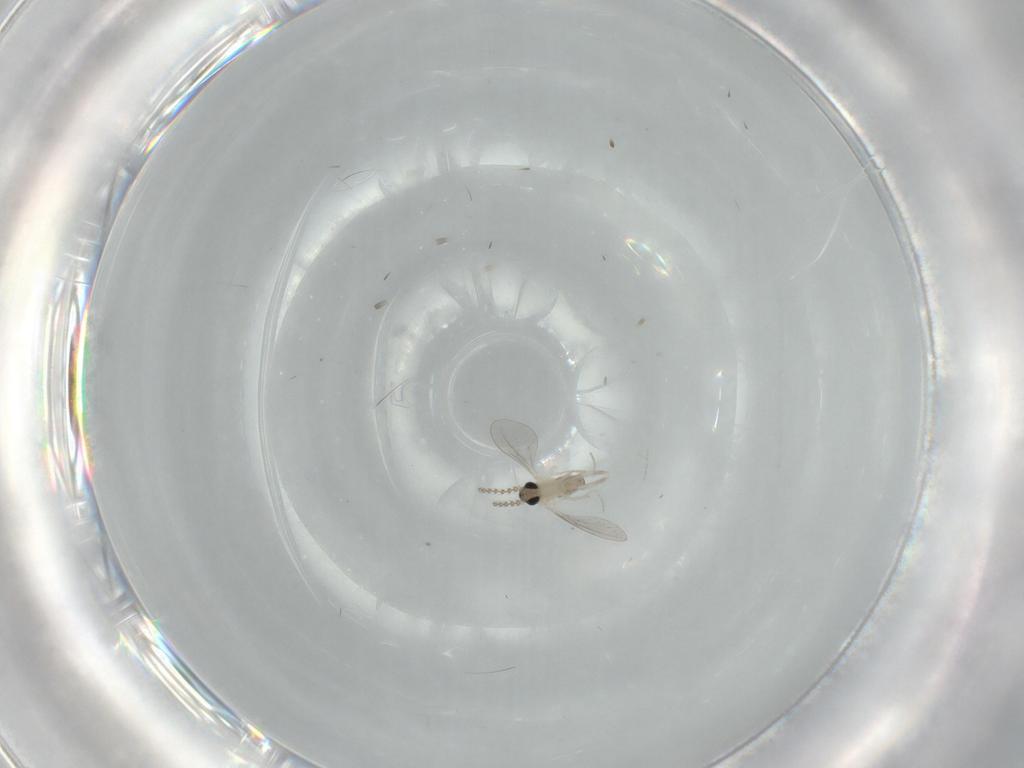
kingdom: Animalia
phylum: Arthropoda
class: Insecta
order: Diptera
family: Cecidomyiidae
